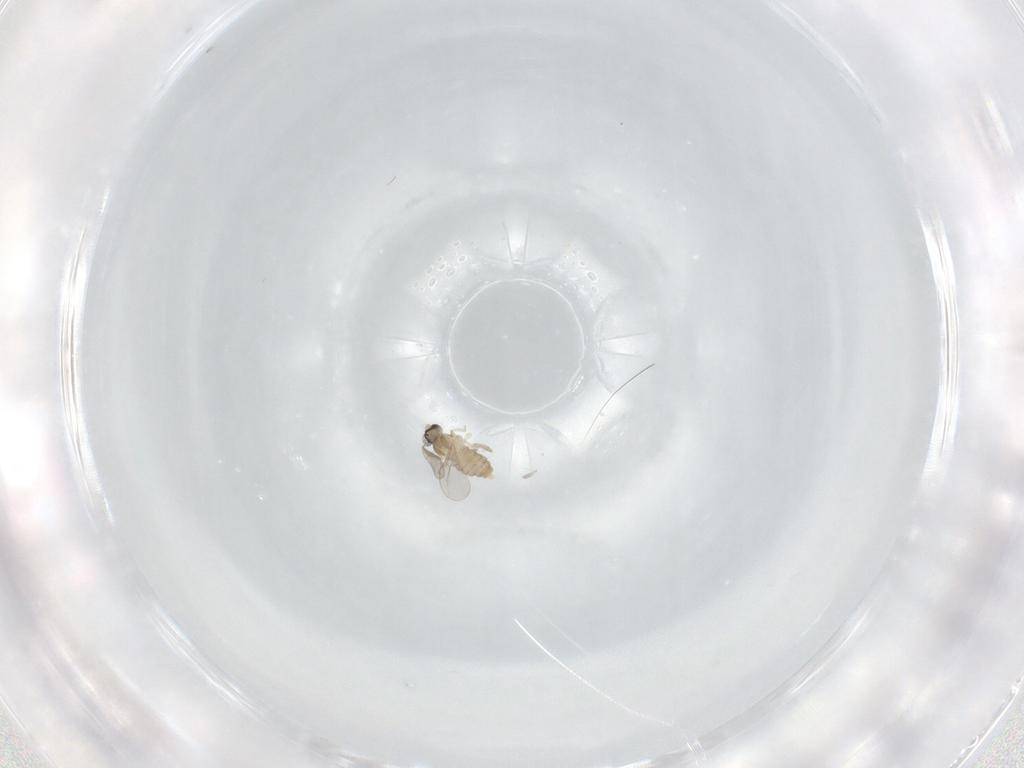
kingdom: Animalia
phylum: Arthropoda
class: Insecta
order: Diptera
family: Cecidomyiidae
